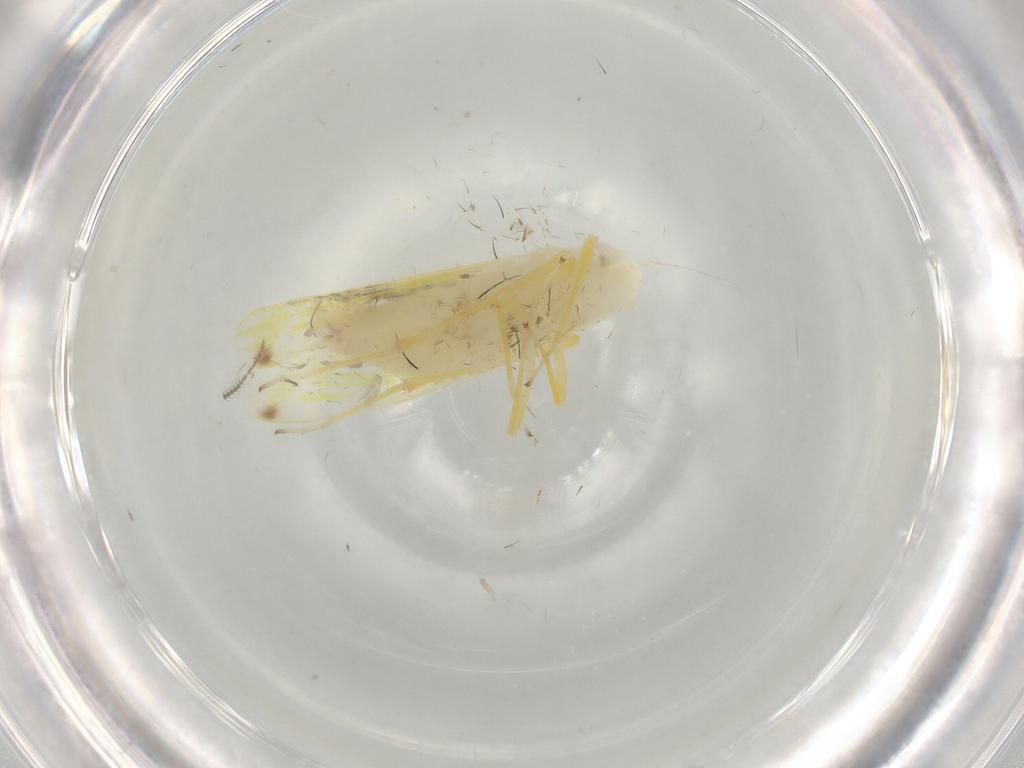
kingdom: Animalia
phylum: Arthropoda
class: Insecta
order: Hemiptera
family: Cicadellidae
